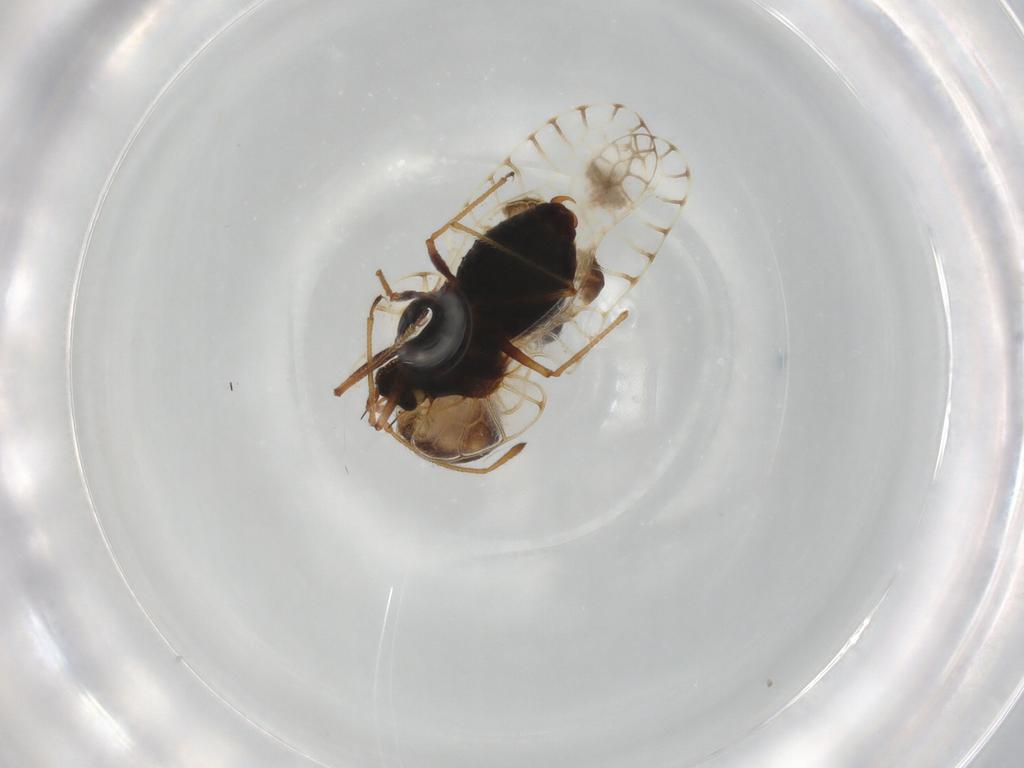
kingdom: Animalia
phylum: Arthropoda
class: Insecta
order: Hemiptera
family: Tingidae
